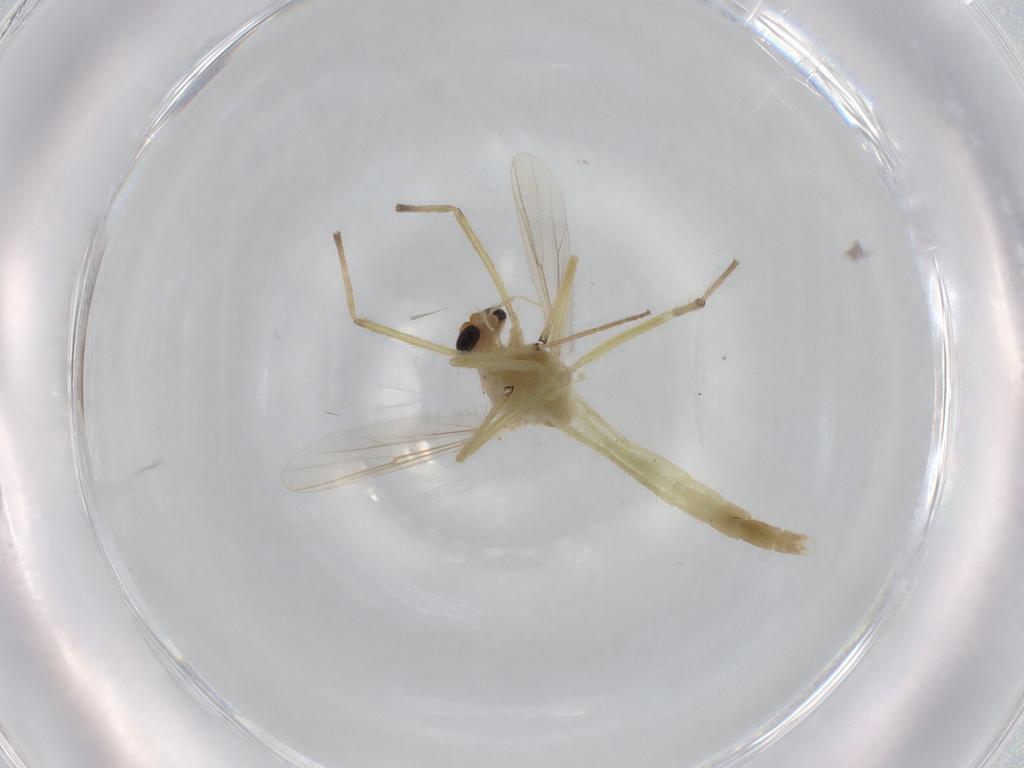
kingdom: Animalia
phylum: Arthropoda
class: Insecta
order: Diptera
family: Chironomidae
